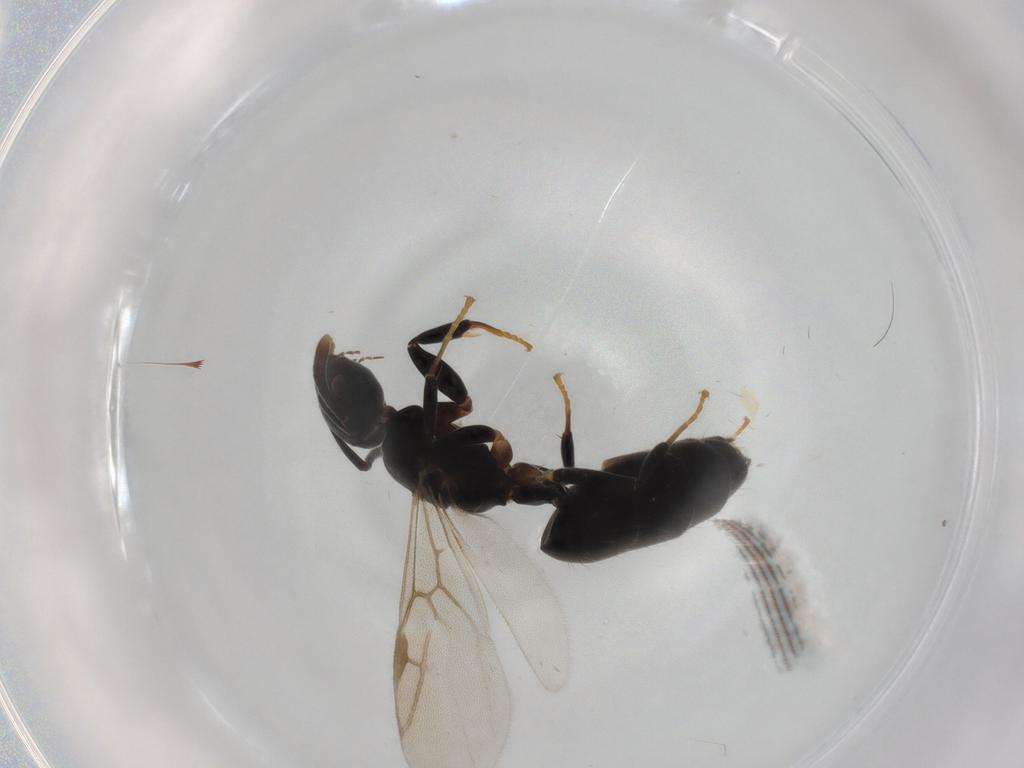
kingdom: Animalia
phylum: Arthropoda
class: Insecta
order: Hymenoptera
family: Formicidae
